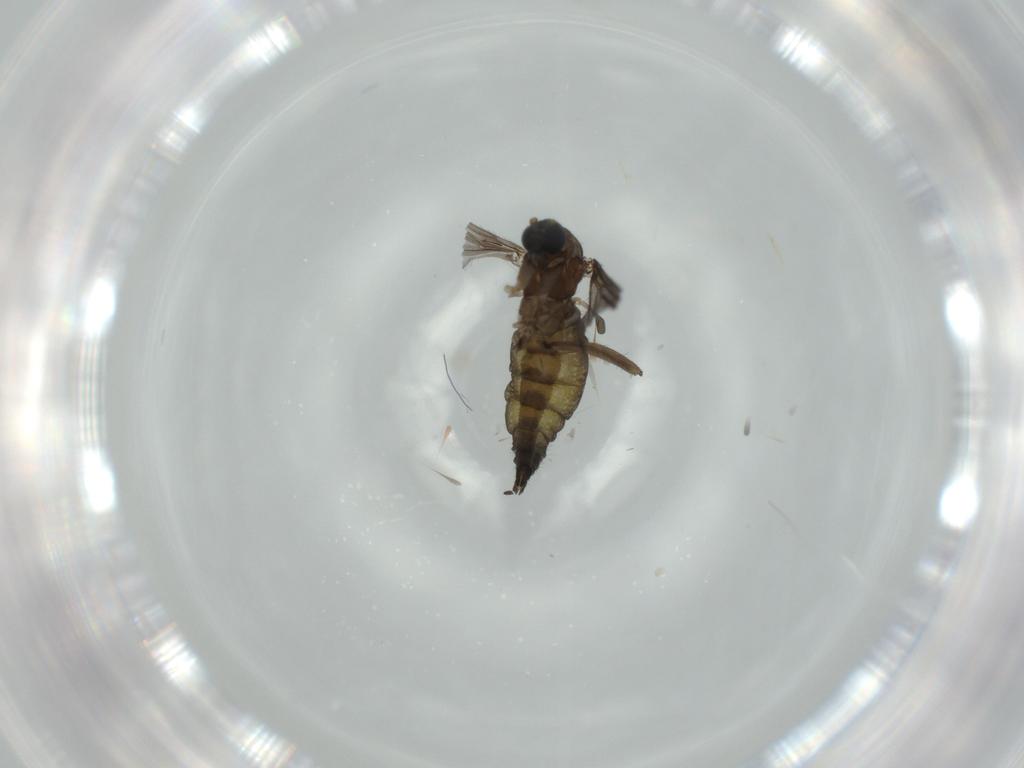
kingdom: Animalia
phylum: Arthropoda
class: Insecta
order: Diptera
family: Sciaridae
